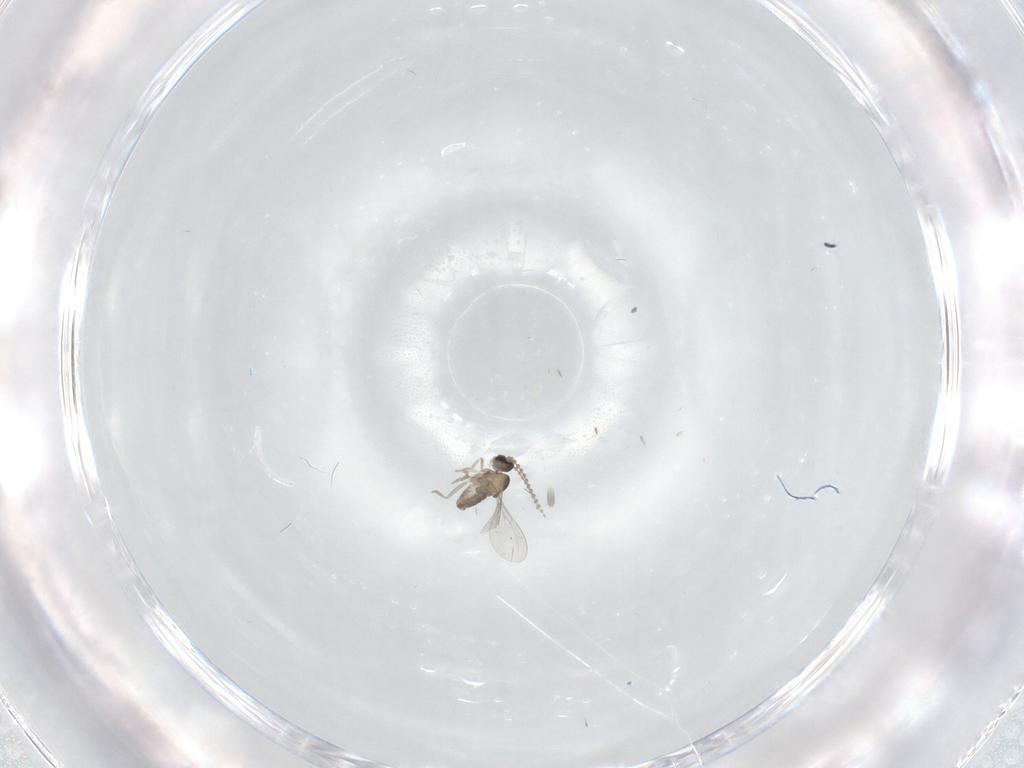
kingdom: Animalia
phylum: Arthropoda
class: Insecta
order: Diptera
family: Cecidomyiidae
